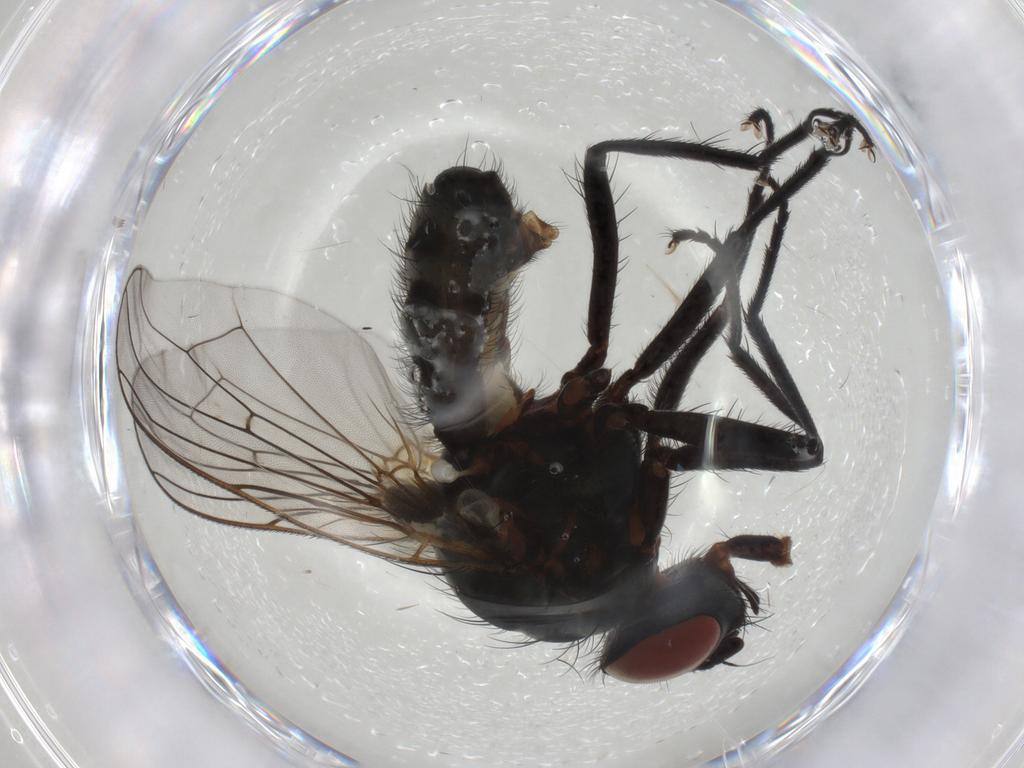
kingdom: Animalia
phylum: Arthropoda
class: Insecta
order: Diptera
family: Anthomyiidae
